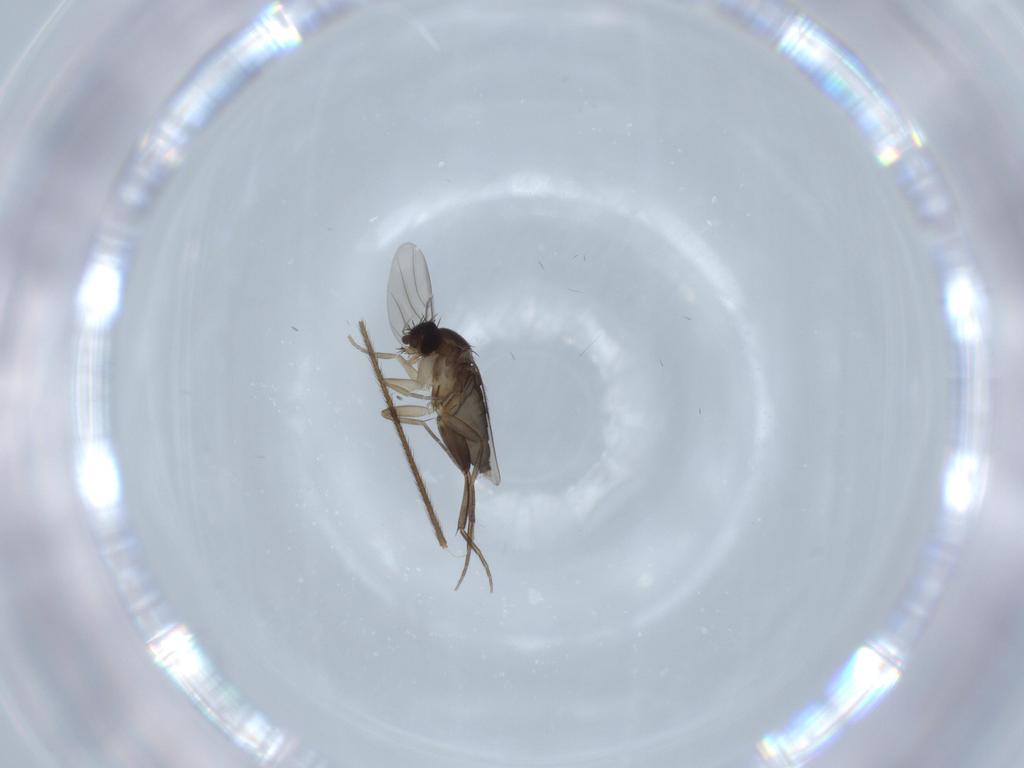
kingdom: Animalia
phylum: Arthropoda
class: Insecta
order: Diptera
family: Phoridae
